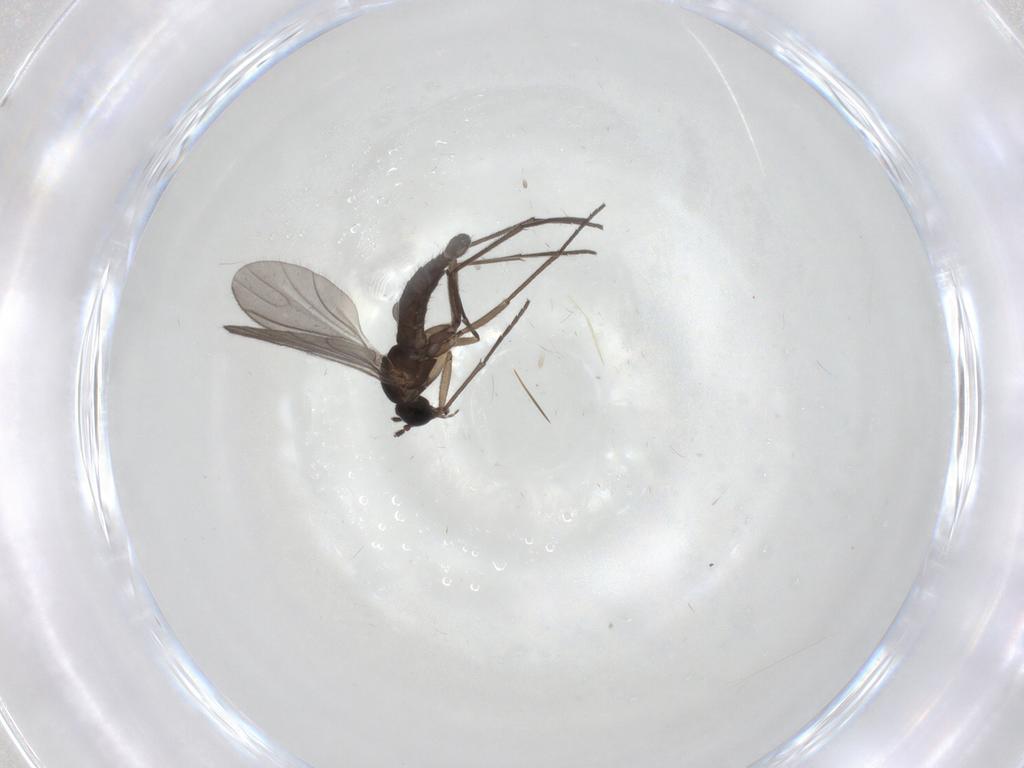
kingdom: Animalia
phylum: Arthropoda
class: Insecta
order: Diptera
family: Sciaridae
